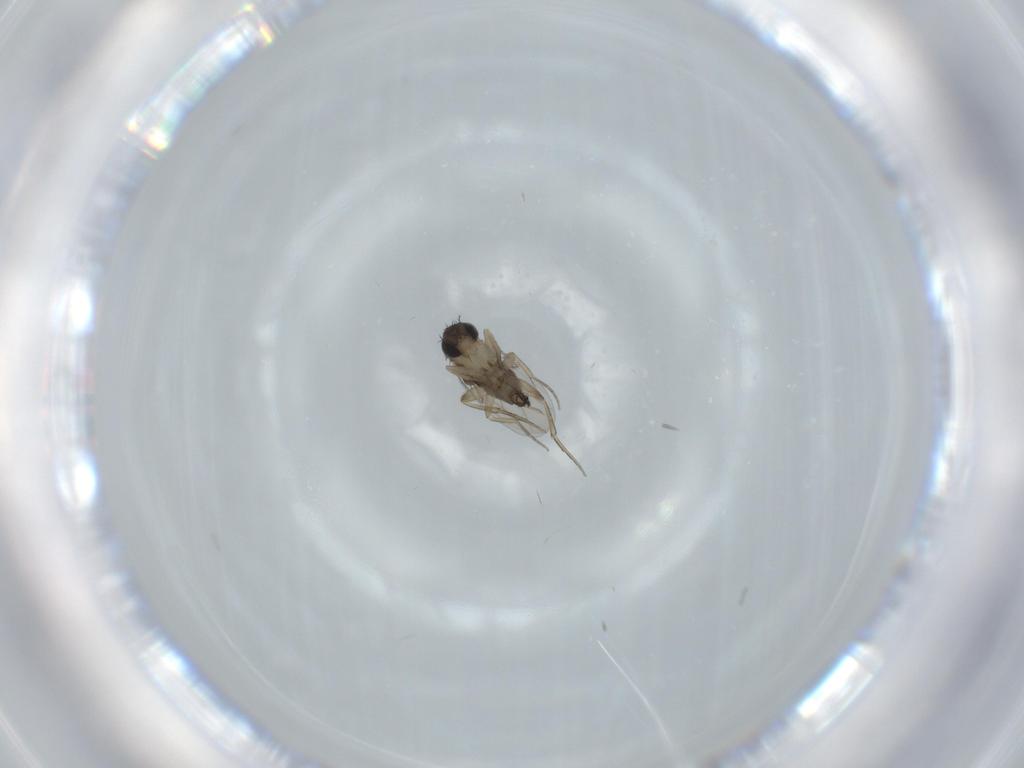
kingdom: Animalia
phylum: Arthropoda
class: Insecta
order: Diptera
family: Phoridae
